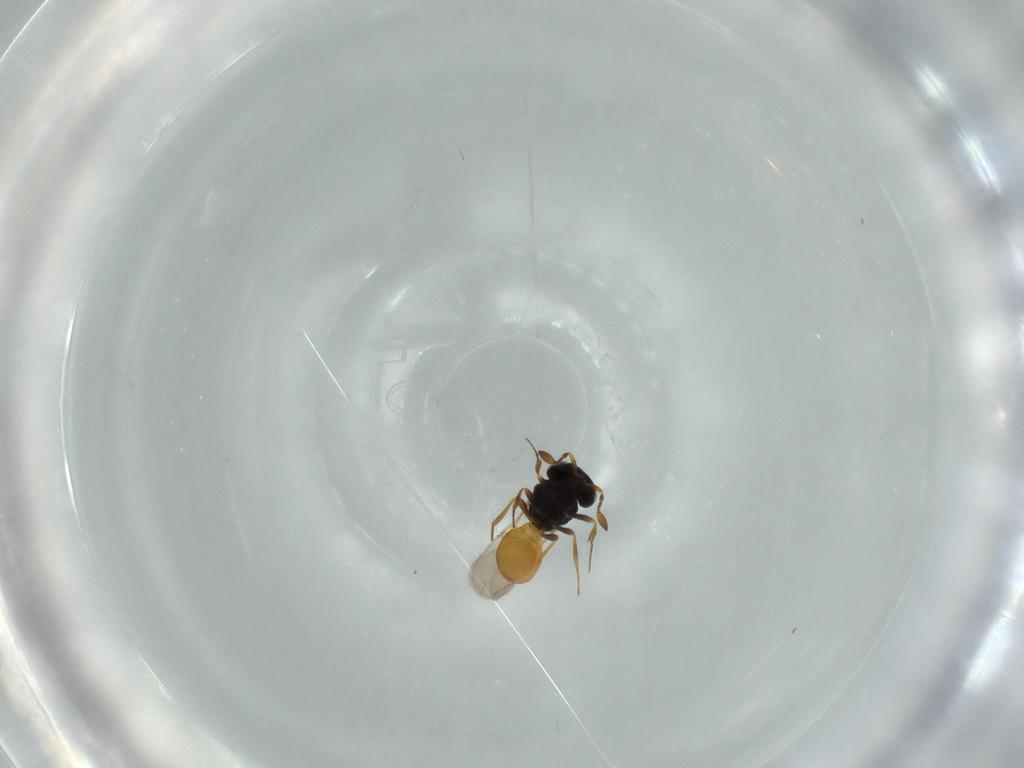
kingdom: Animalia
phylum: Arthropoda
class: Insecta
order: Hymenoptera
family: Scelionidae
